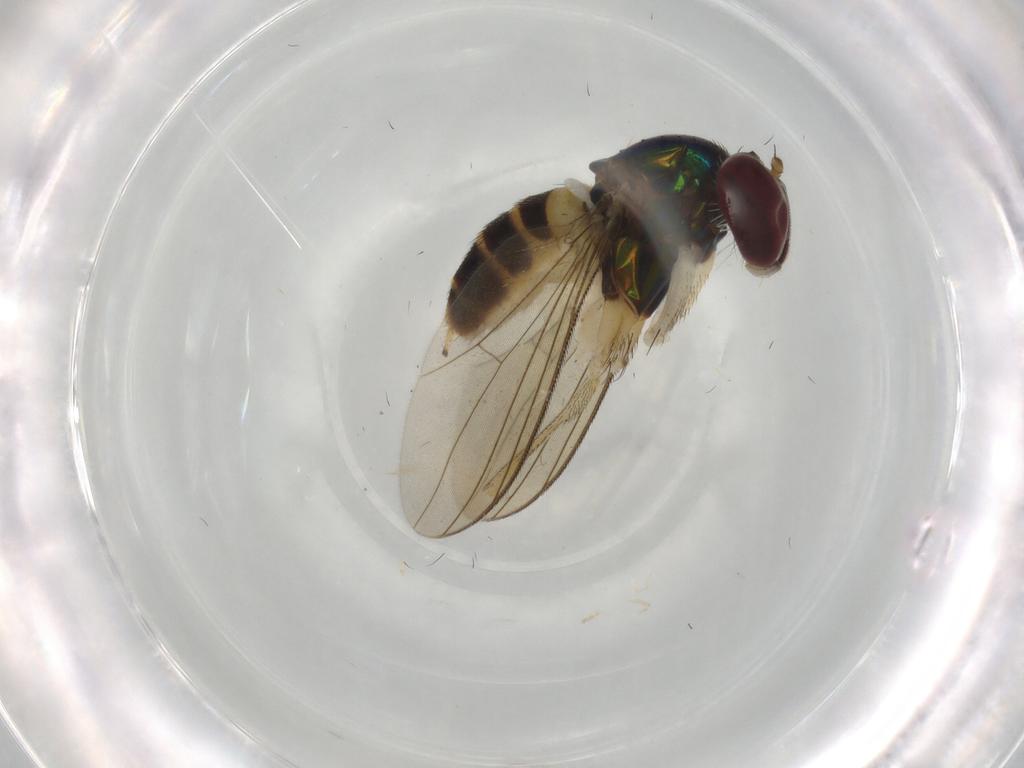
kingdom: Animalia
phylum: Arthropoda
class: Insecta
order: Diptera
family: Dolichopodidae
